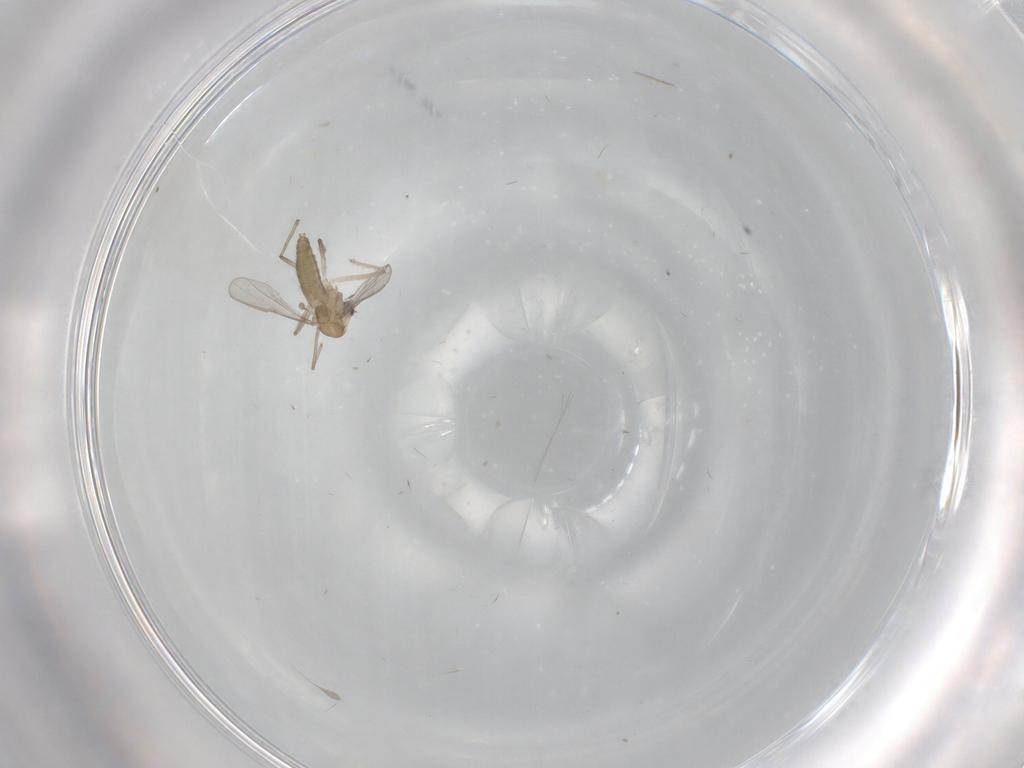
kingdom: Animalia
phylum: Arthropoda
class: Insecta
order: Diptera
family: Chironomidae
